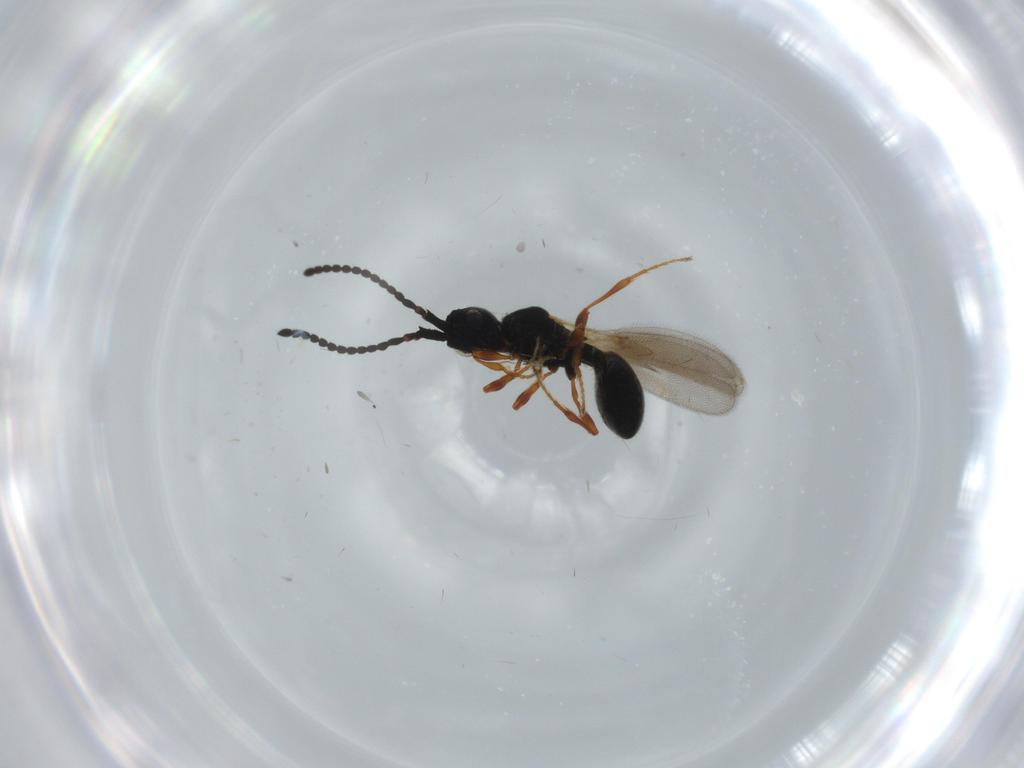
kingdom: Animalia
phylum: Arthropoda
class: Insecta
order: Hymenoptera
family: Diapriidae
